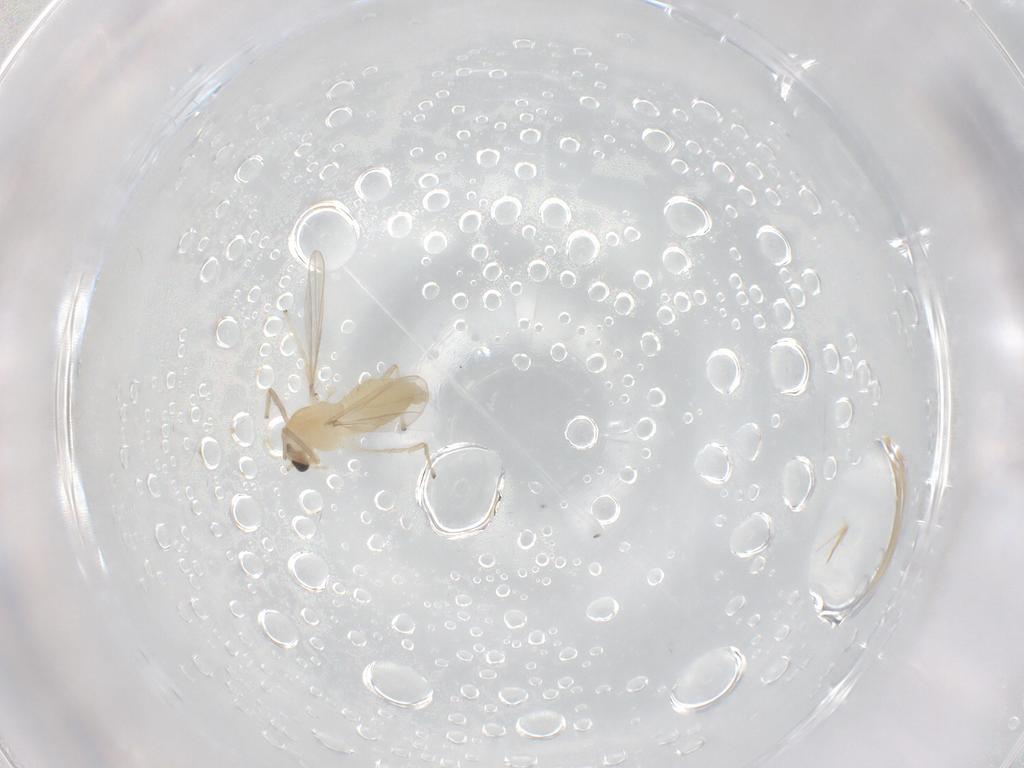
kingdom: Animalia
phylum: Arthropoda
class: Insecta
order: Diptera
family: Chironomidae
